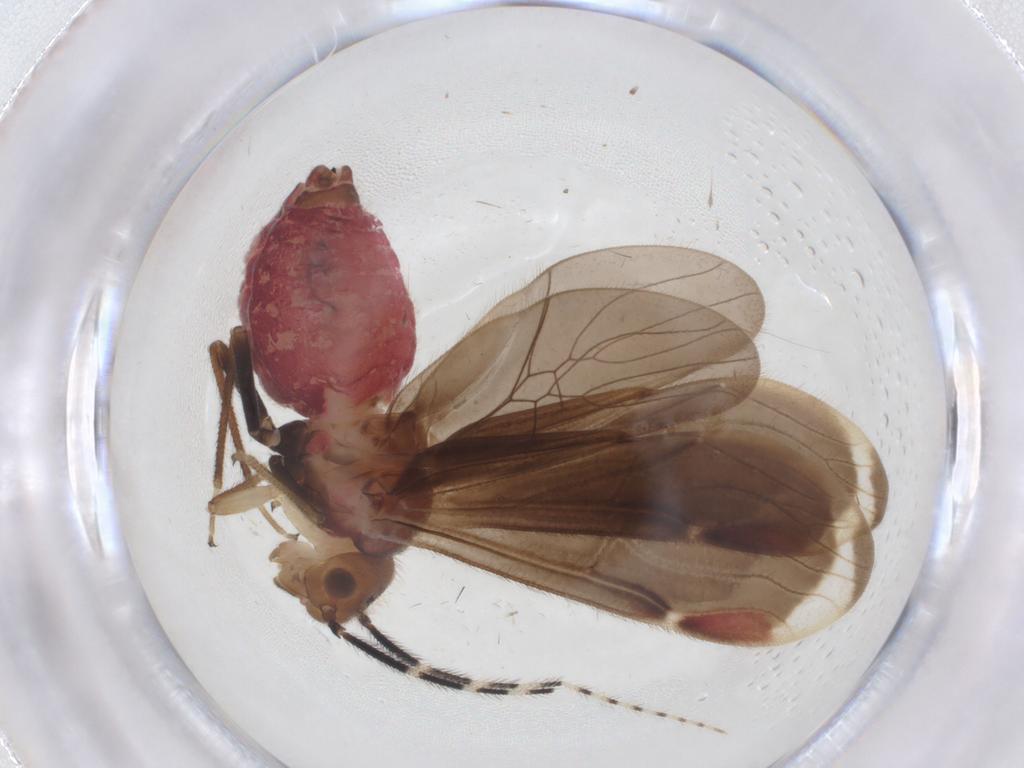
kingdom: Animalia
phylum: Arthropoda
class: Insecta
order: Psocodea
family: Amphipsocidae
